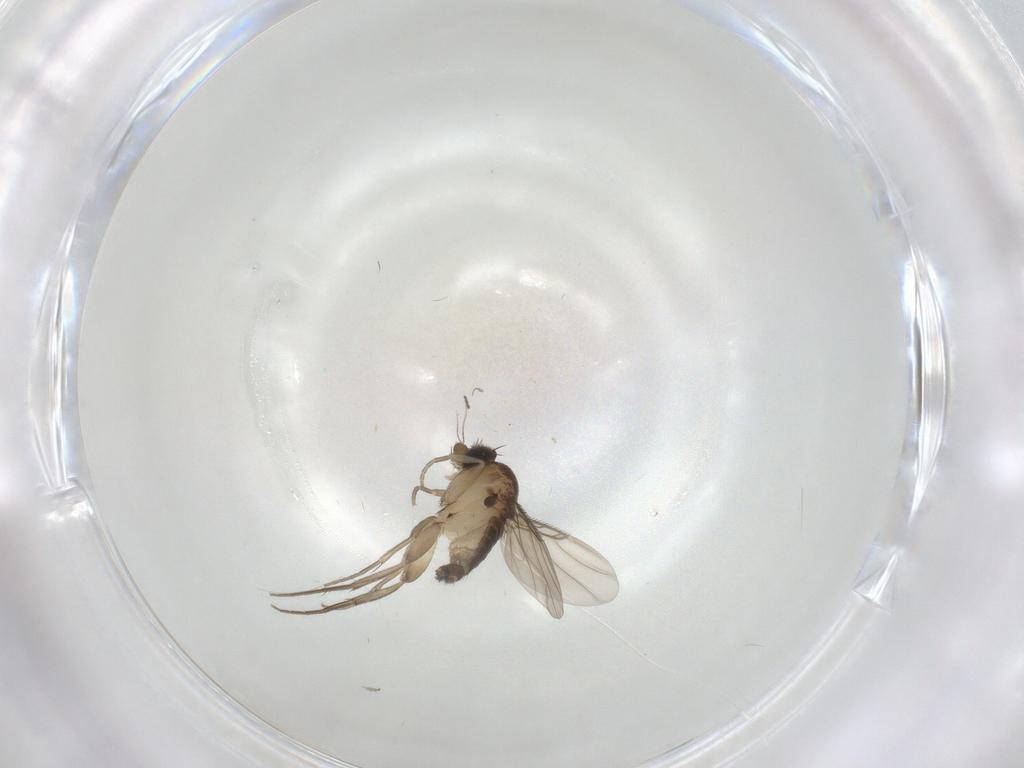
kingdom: Animalia
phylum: Arthropoda
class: Insecta
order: Diptera
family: Phoridae
